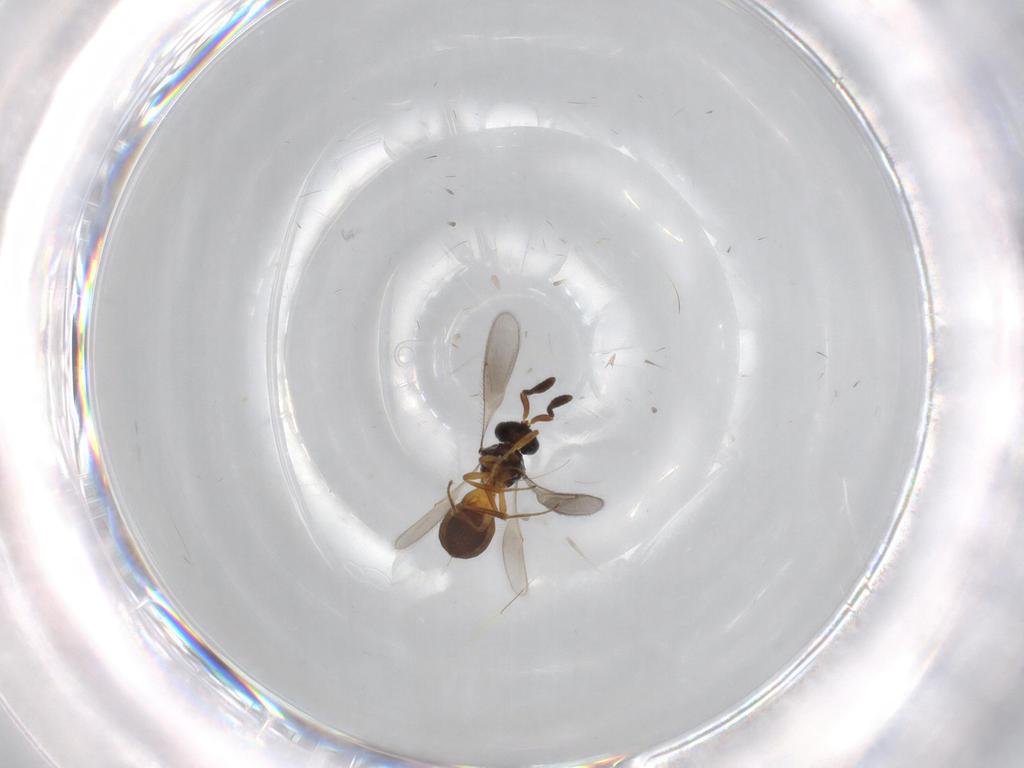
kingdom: Animalia
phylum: Arthropoda
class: Insecta
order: Hymenoptera
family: Scelionidae
